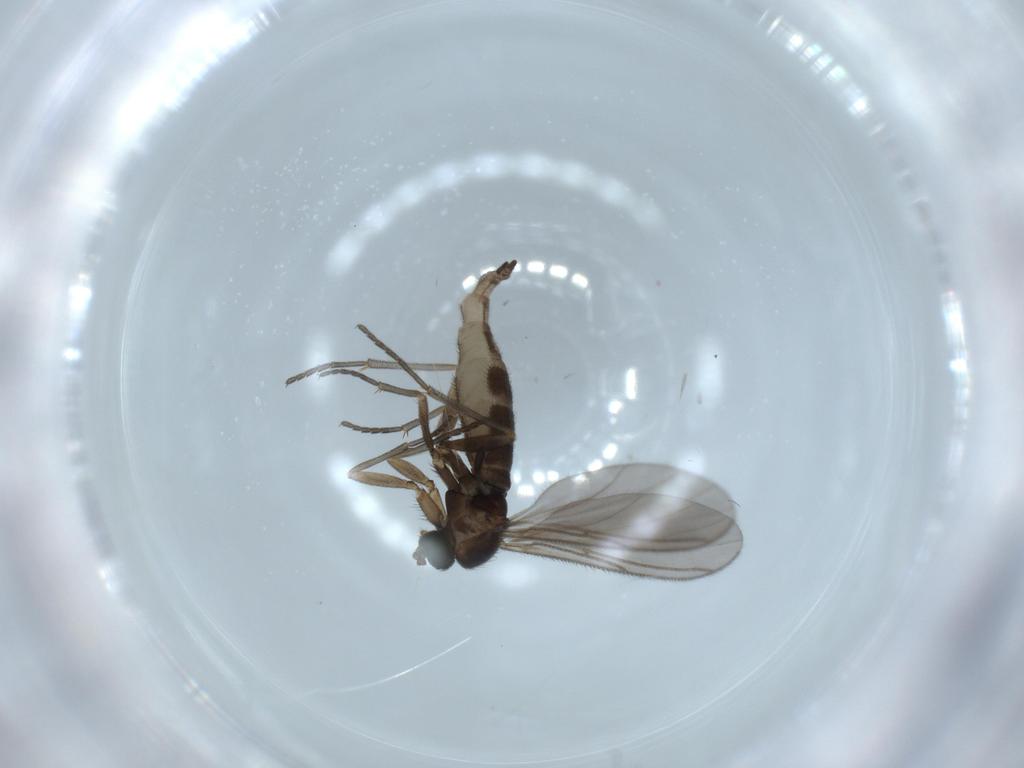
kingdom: Animalia
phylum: Arthropoda
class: Insecta
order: Diptera
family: Sciaridae
